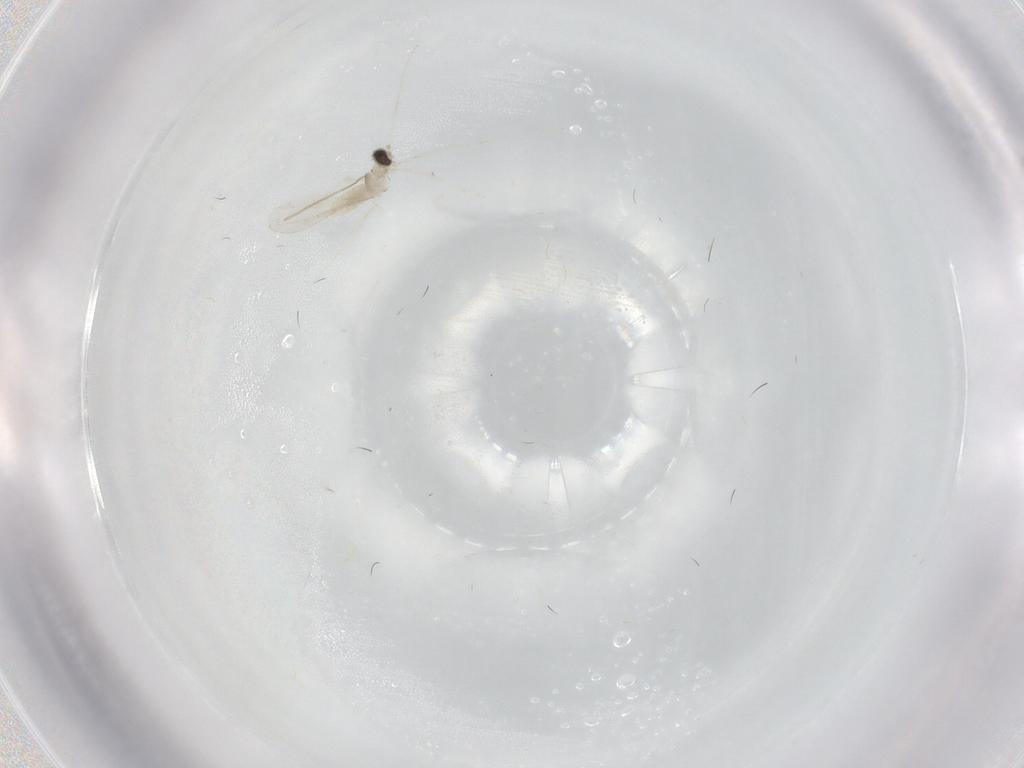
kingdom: Animalia
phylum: Arthropoda
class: Insecta
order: Diptera
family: Cecidomyiidae
